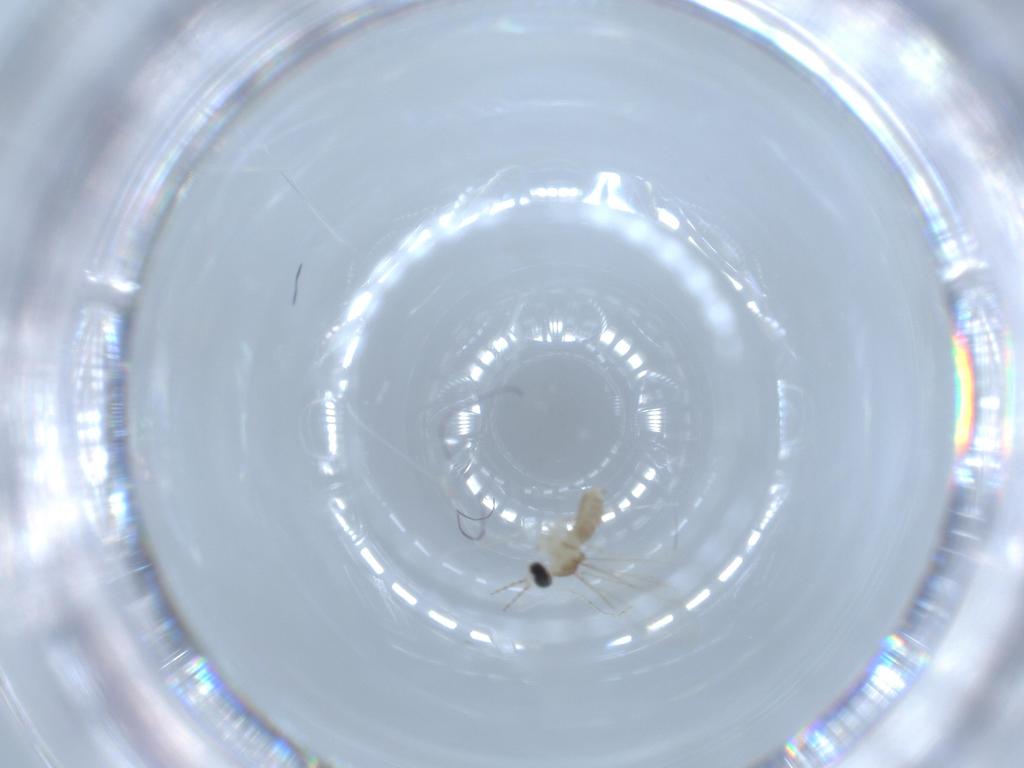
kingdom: Animalia
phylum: Arthropoda
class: Insecta
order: Diptera
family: Cecidomyiidae
